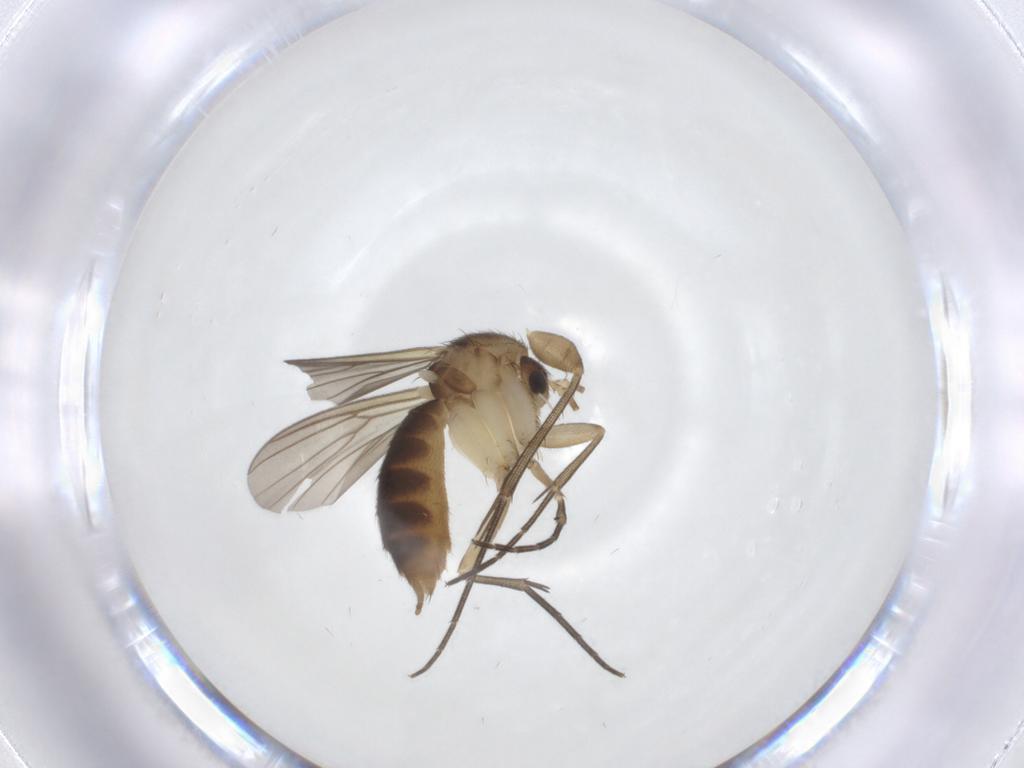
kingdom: Animalia
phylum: Arthropoda
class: Insecta
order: Diptera
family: Mycetophilidae
